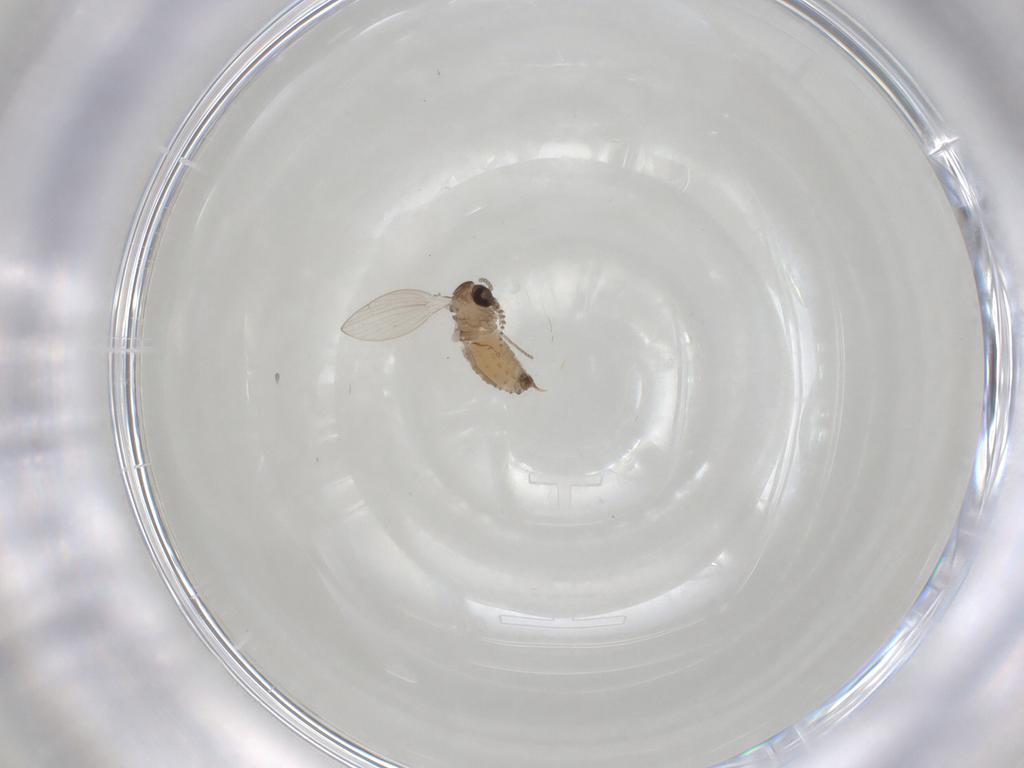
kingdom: Animalia
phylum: Arthropoda
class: Insecta
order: Diptera
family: Psychodidae
